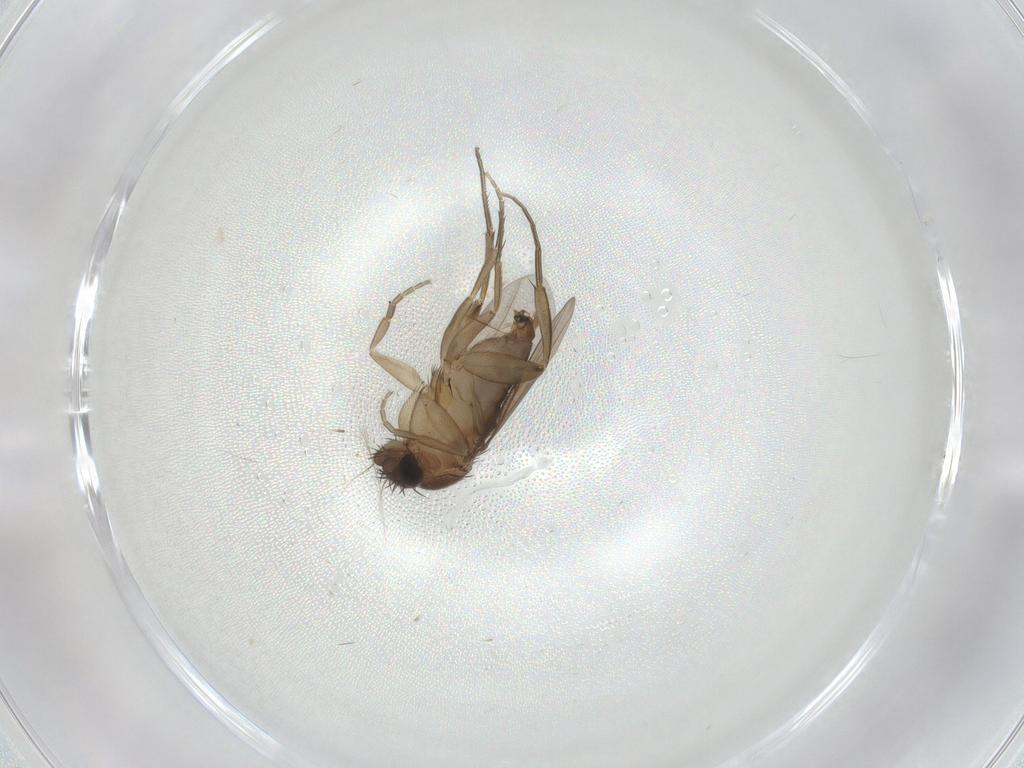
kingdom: Animalia
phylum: Arthropoda
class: Insecta
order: Diptera
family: Phoridae
